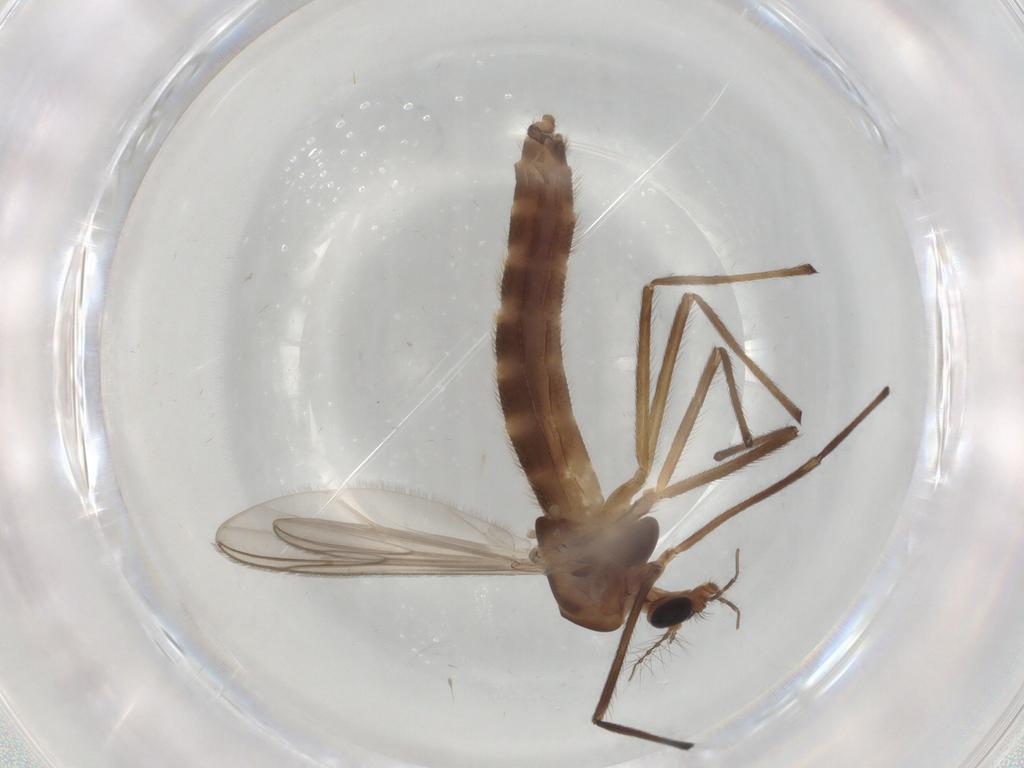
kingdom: Animalia
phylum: Arthropoda
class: Insecta
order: Diptera
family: Chironomidae
